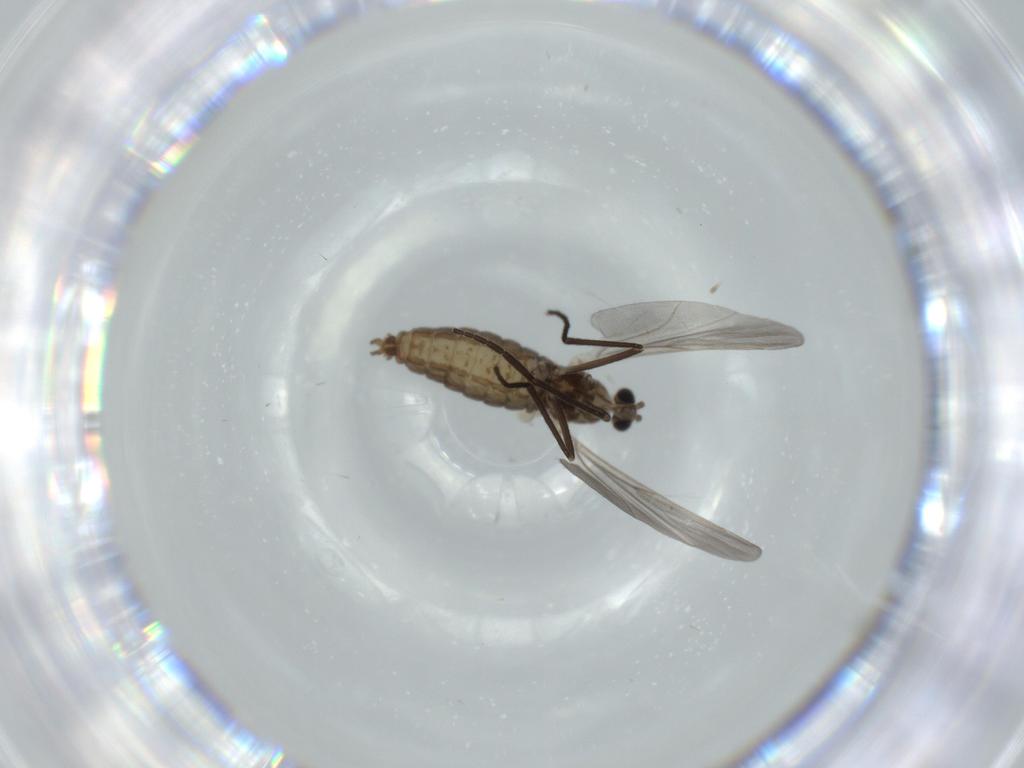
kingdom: Animalia
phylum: Arthropoda
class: Insecta
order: Diptera
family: Cecidomyiidae
